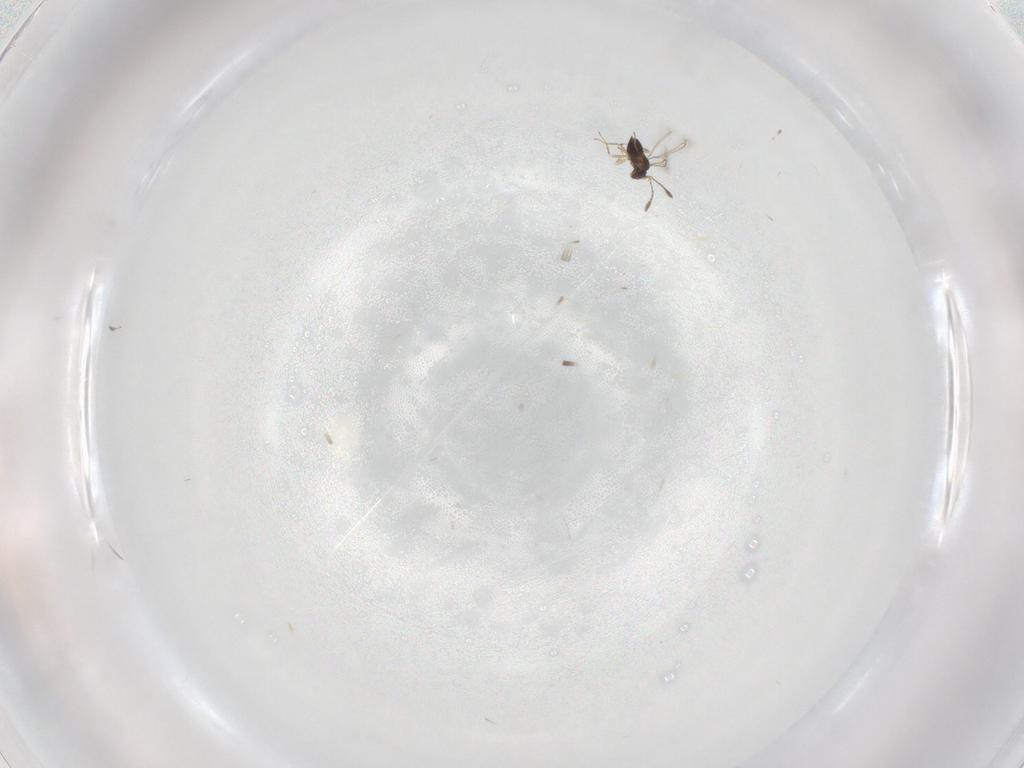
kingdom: Animalia
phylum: Arthropoda
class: Insecta
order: Hymenoptera
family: Mymaridae
